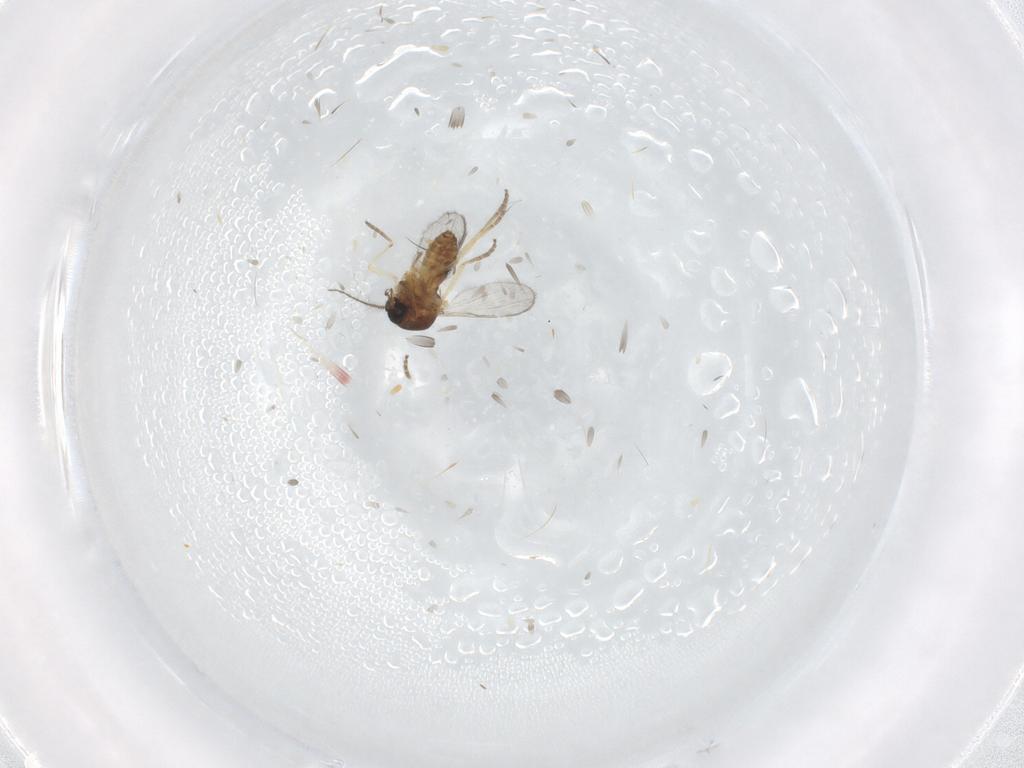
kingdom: Animalia
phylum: Arthropoda
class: Insecta
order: Diptera
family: Ceratopogonidae
